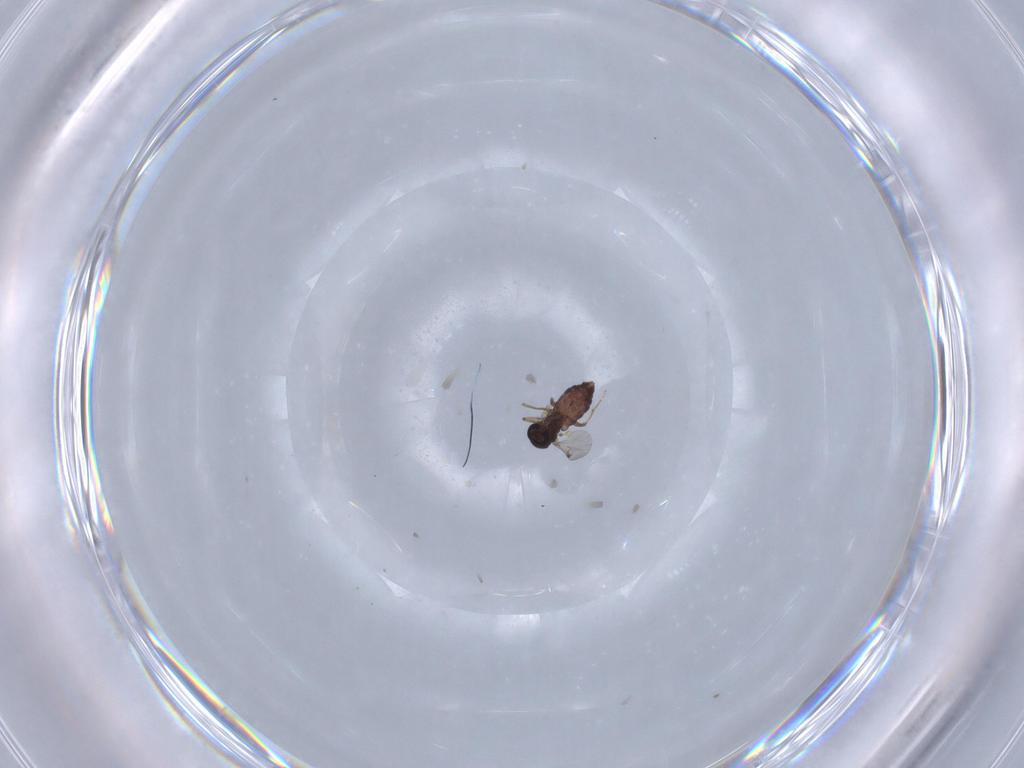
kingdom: Animalia
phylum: Arthropoda
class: Insecta
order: Diptera
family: Ceratopogonidae
